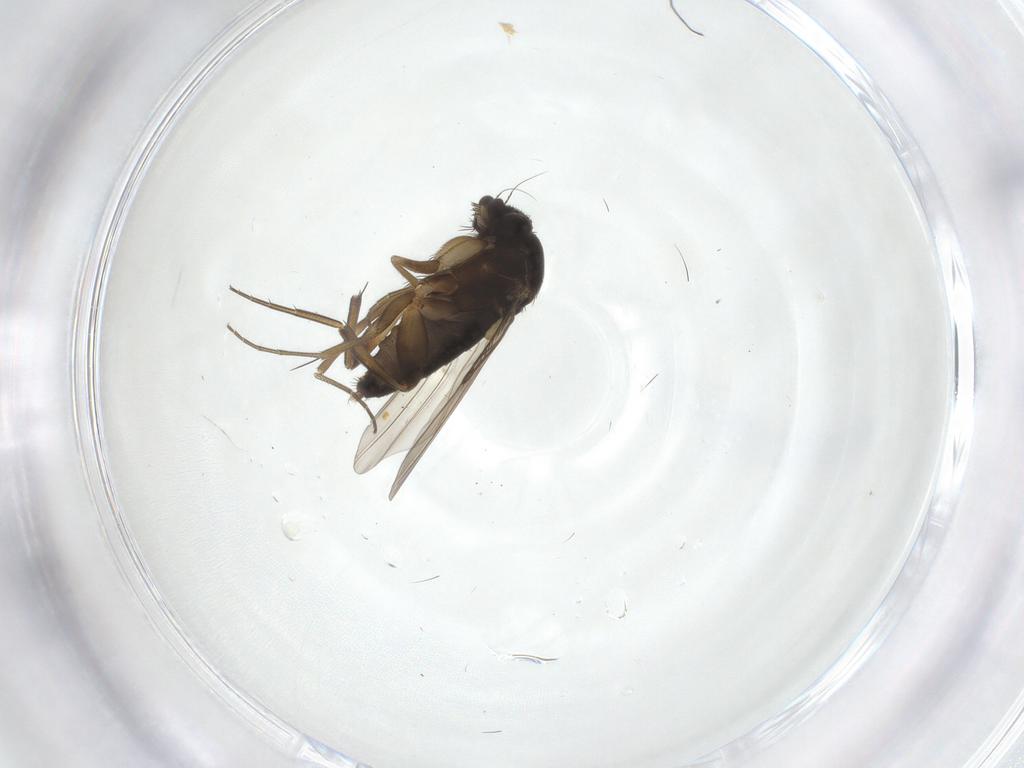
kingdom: Animalia
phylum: Arthropoda
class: Insecta
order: Diptera
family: Phoridae
